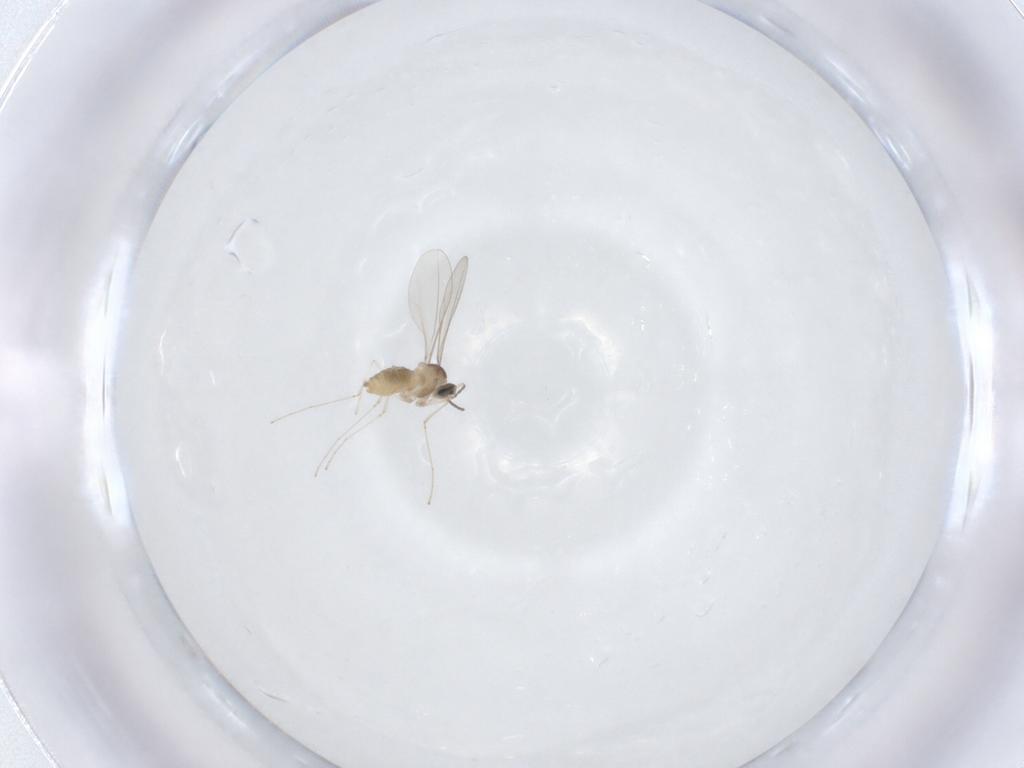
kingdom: Animalia
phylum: Arthropoda
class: Insecta
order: Diptera
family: Cecidomyiidae
